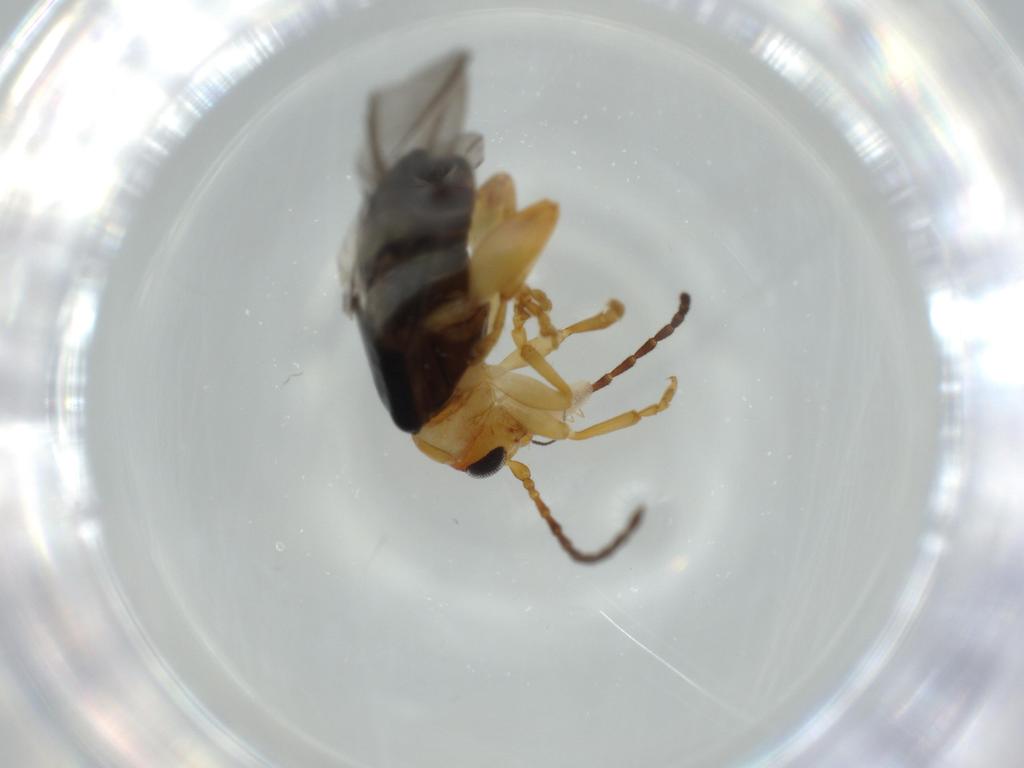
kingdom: Animalia
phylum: Arthropoda
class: Insecta
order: Coleoptera
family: Chrysomelidae
